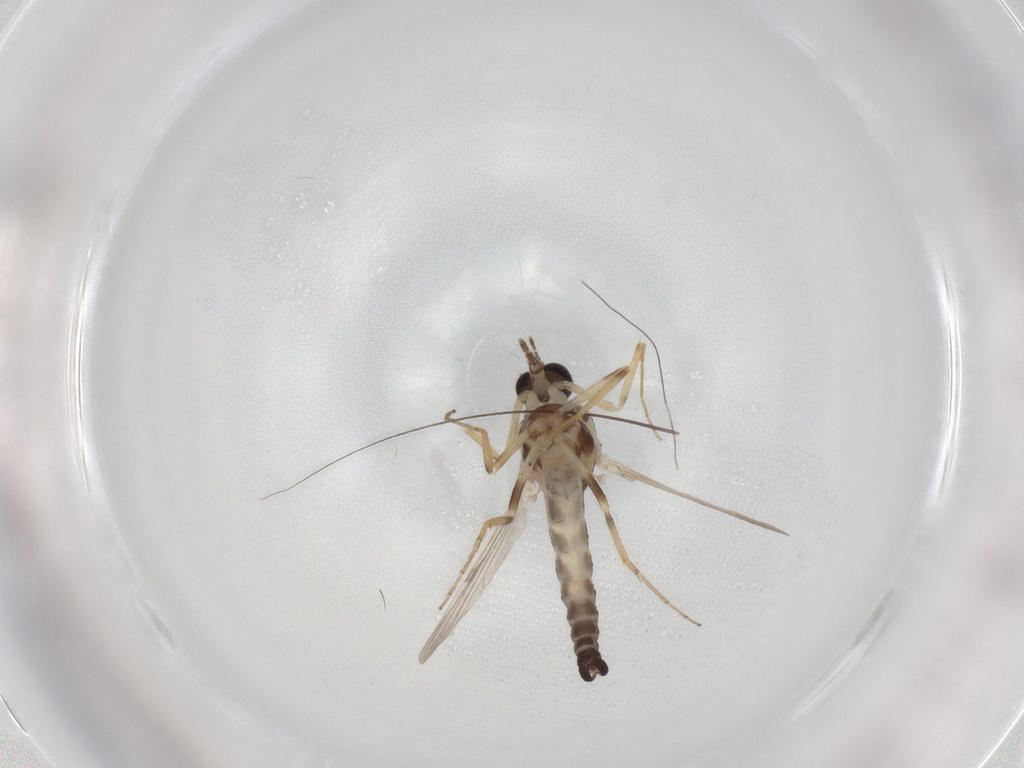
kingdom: Animalia
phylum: Arthropoda
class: Insecta
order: Diptera
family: Ceratopogonidae
